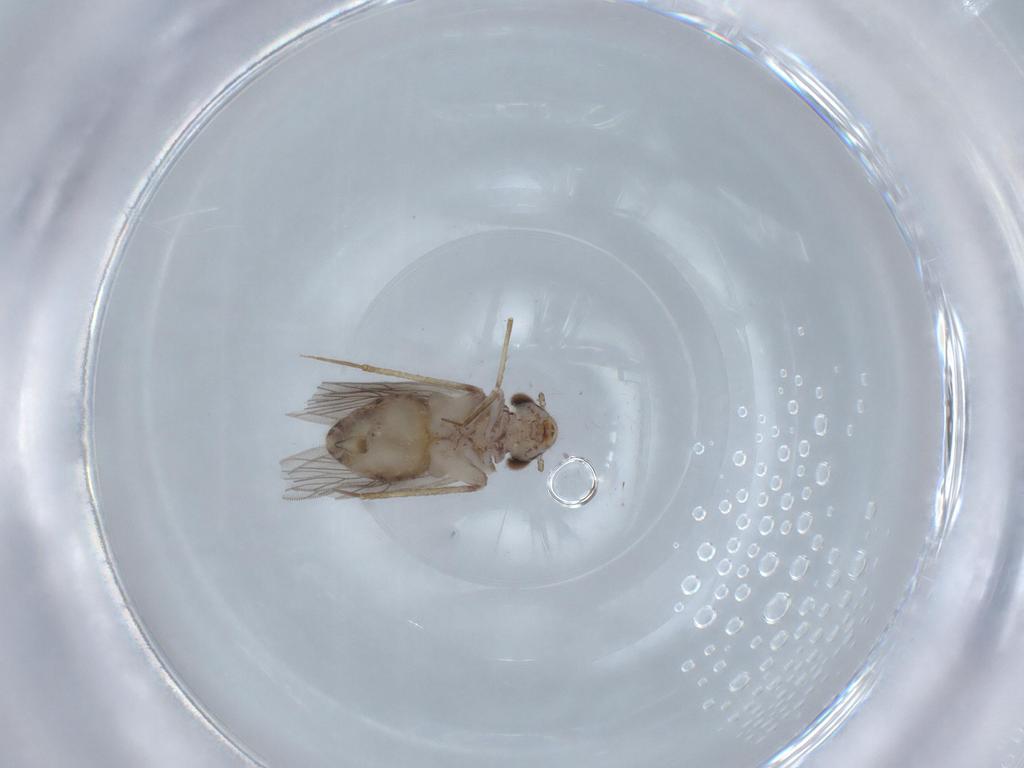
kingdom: Animalia
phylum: Arthropoda
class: Insecta
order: Psocodea
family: Lepidopsocidae
